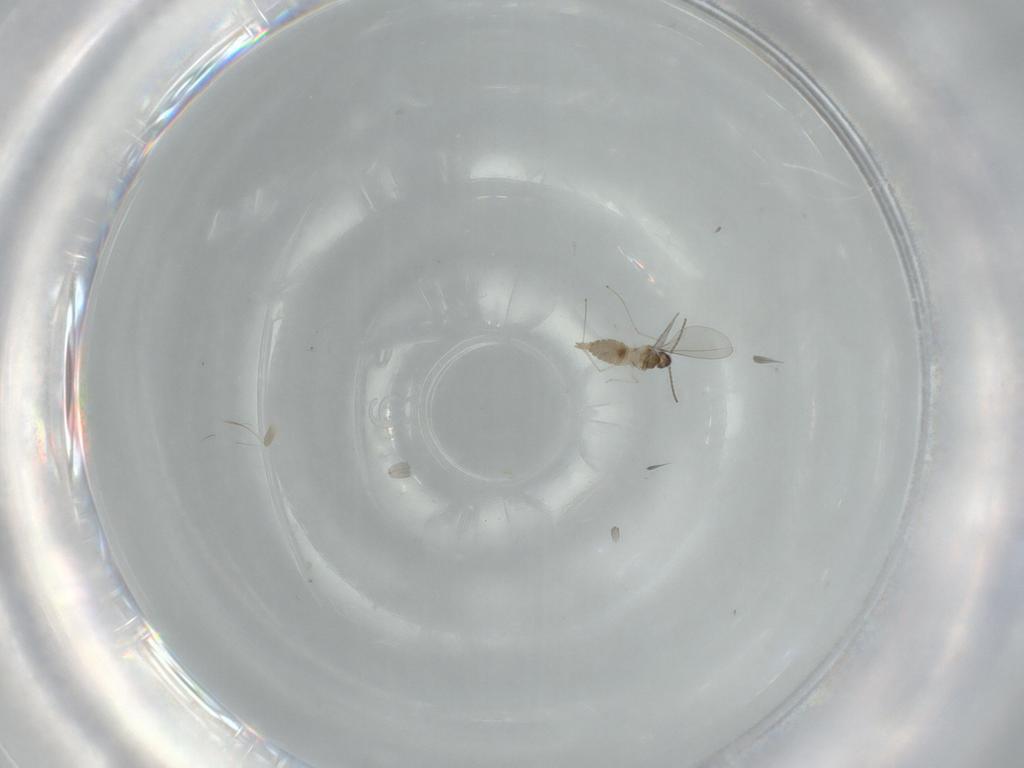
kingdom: Animalia
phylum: Arthropoda
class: Insecta
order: Diptera
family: Cecidomyiidae
